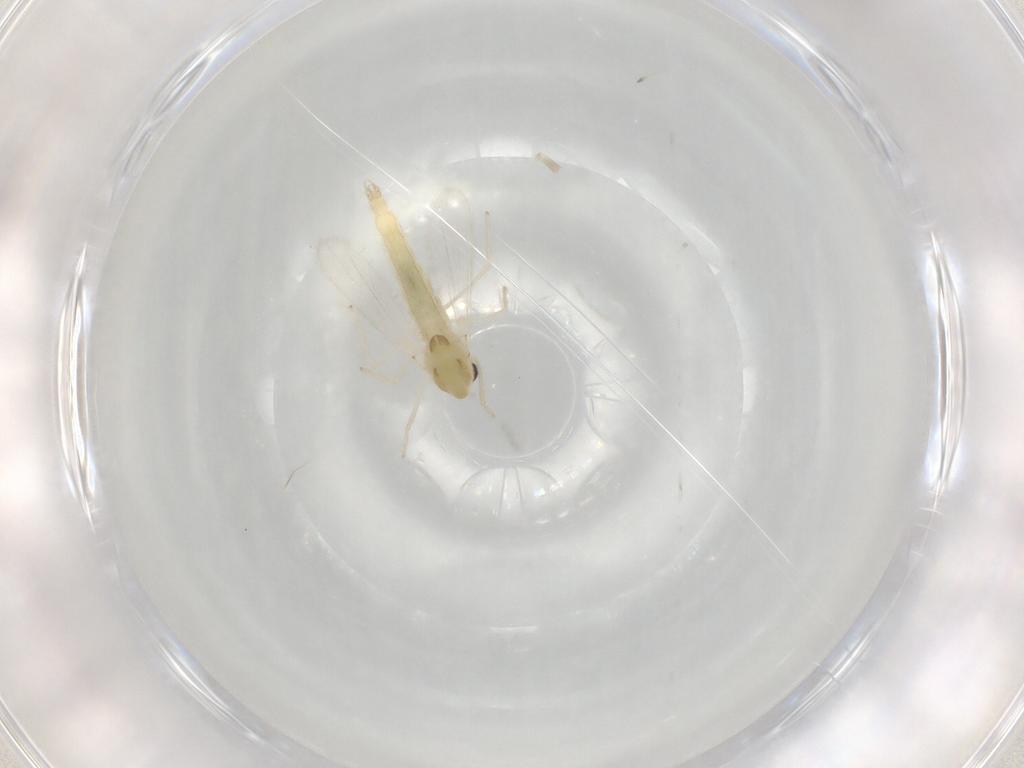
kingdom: Animalia
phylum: Arthropoda
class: Insecta
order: Diptera
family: Chironomidae
